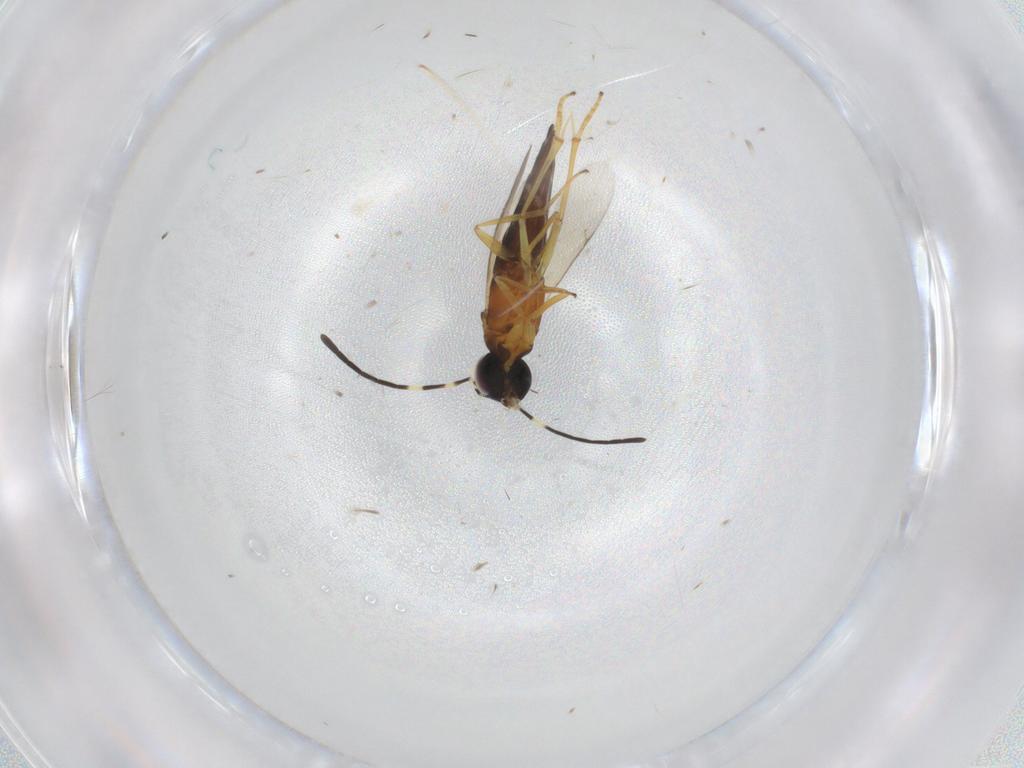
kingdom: Animalia
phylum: Arthropoda
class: Insecta
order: Hymenoptera
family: Encyrtidae
